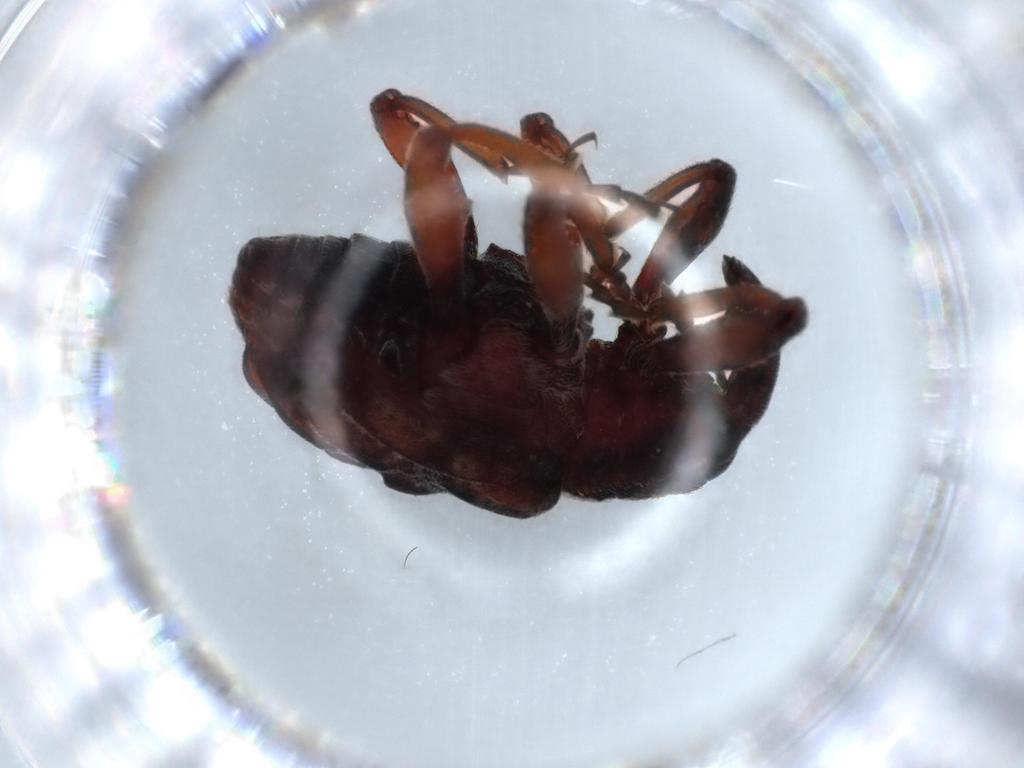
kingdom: Animalia
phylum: Arthropoda
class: Insecta
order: Coleoptera
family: Curculionidae
